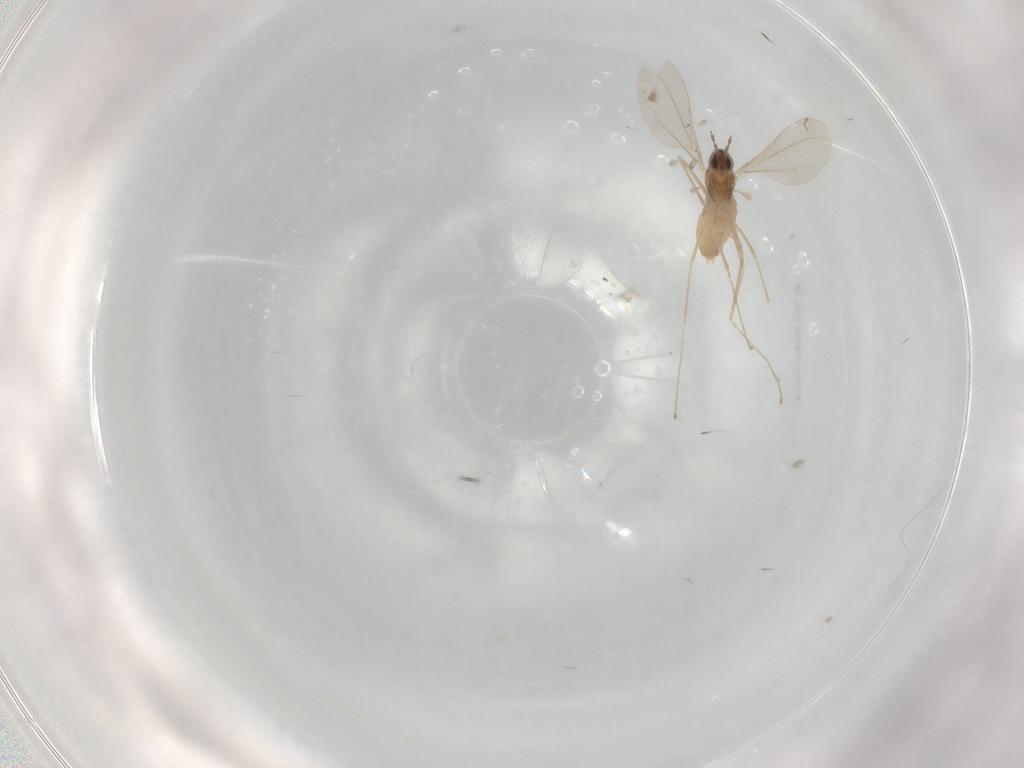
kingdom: Animalia
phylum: Arthropoda
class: Insecta
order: Diptera
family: Cecidomyiidae
